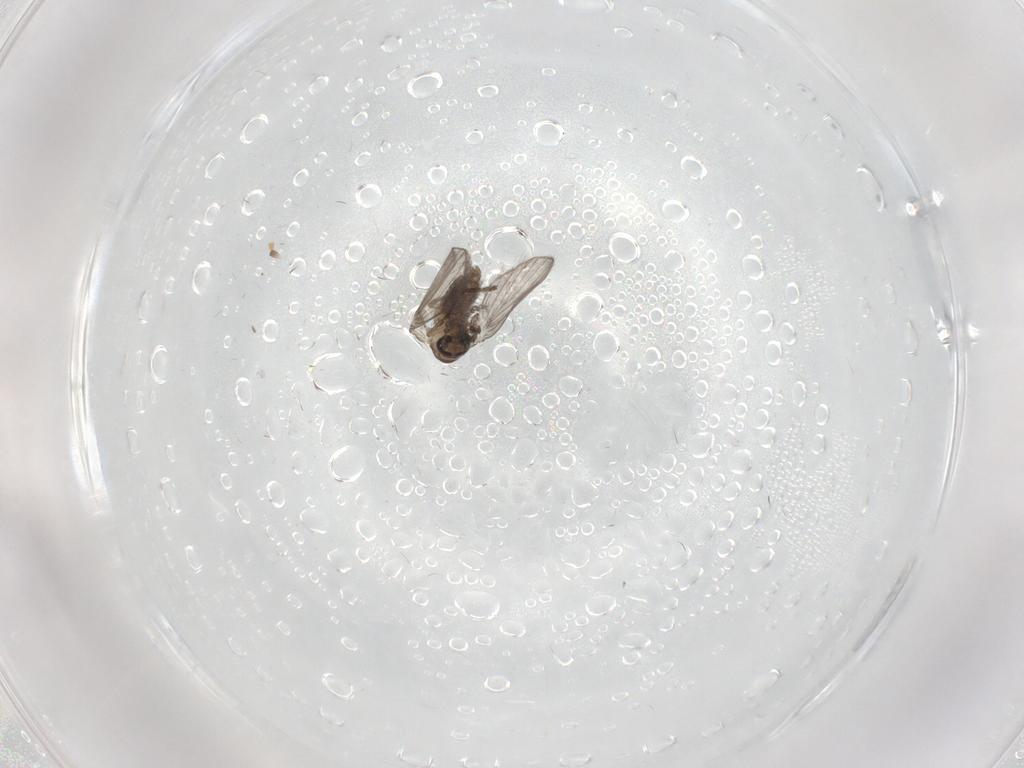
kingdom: Animalia
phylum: Arthropoda
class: Insecta
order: Diptera
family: Psychodidae
